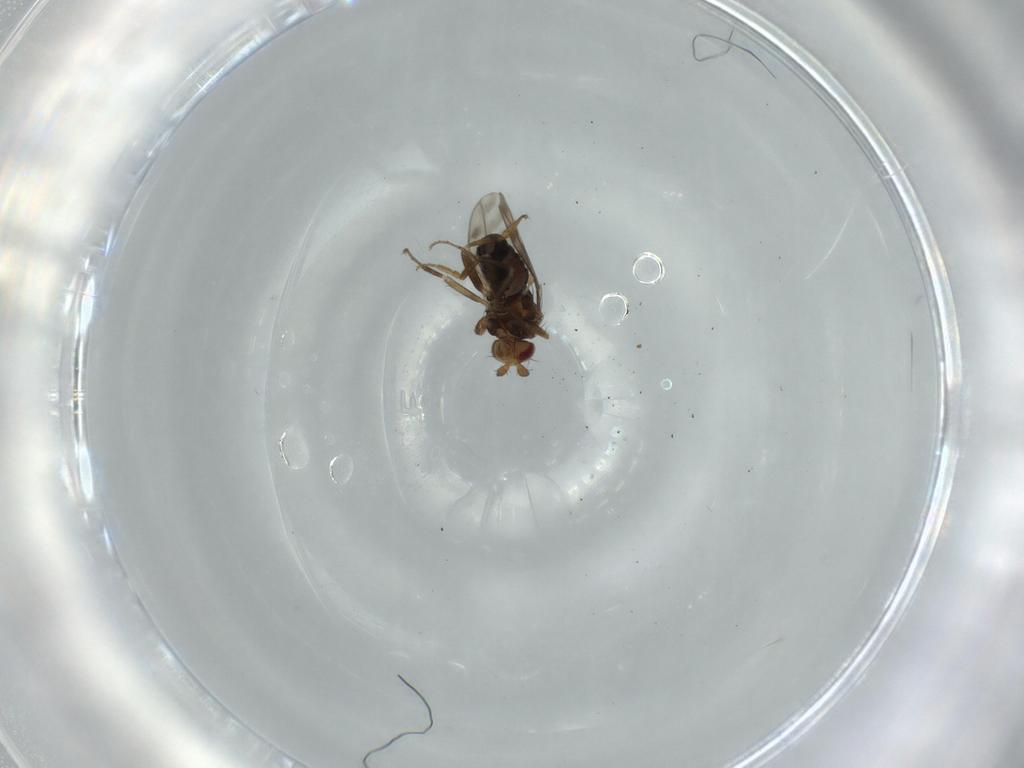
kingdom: Animalia
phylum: Arthropoda
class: Insecta
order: Diptera
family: Sphaeroceridae
